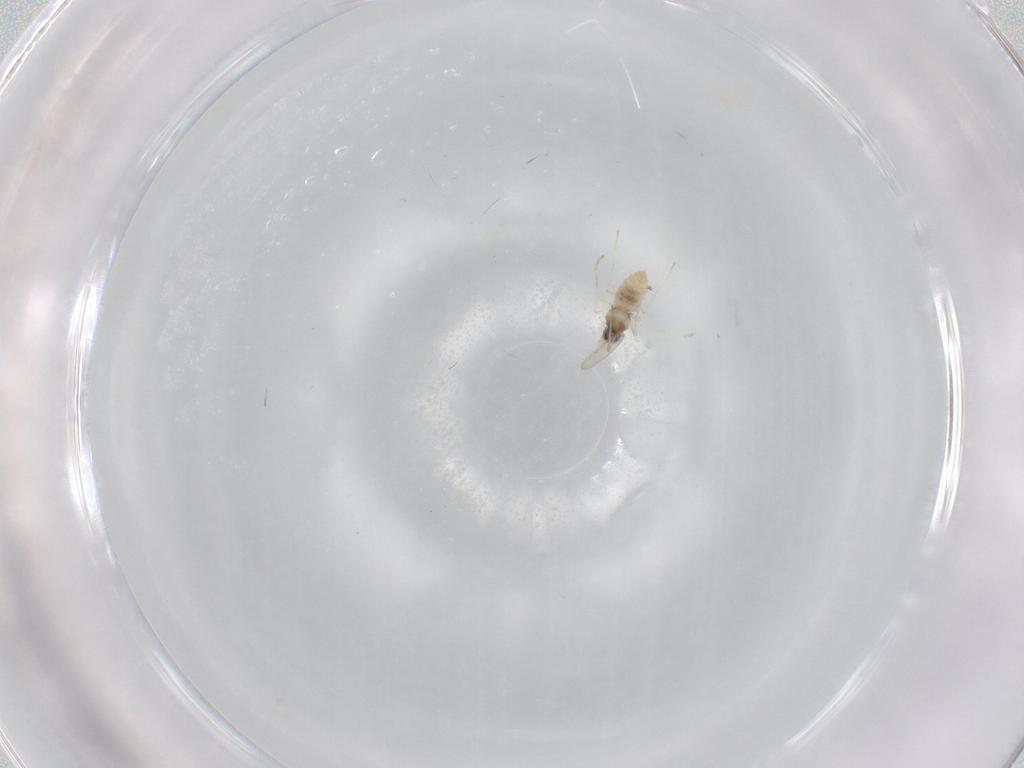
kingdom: Animalia
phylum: Arthropoda
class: Insecta
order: Diptera
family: Cecidomyiidae
